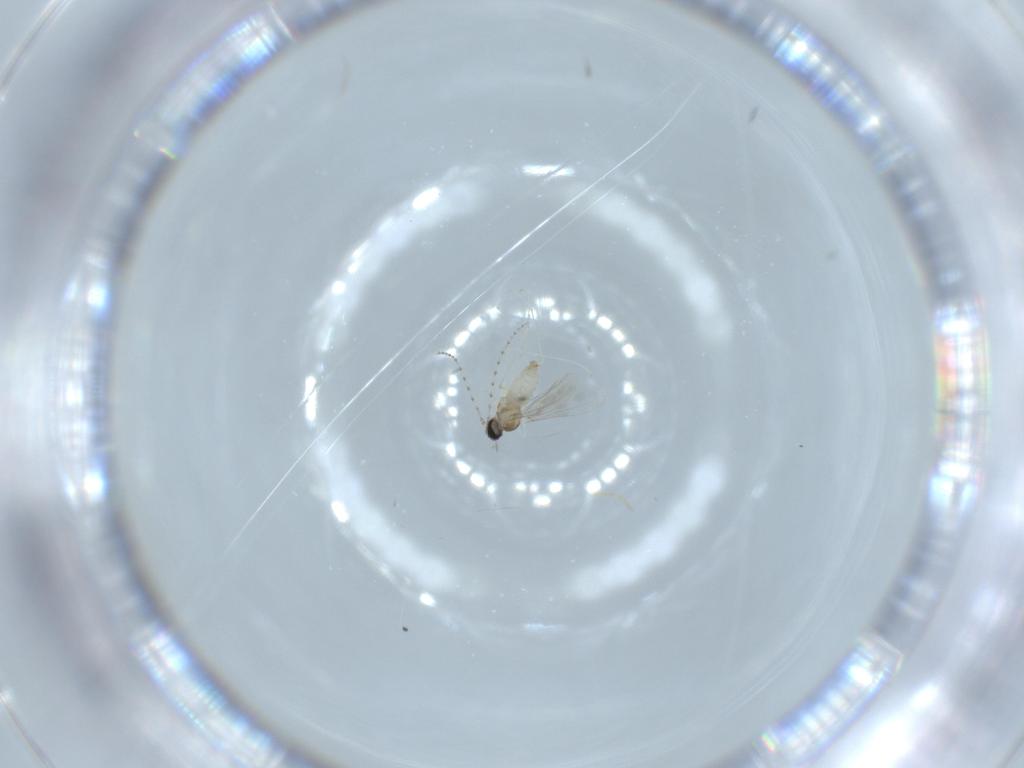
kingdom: Animalia
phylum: Arthropoda
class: Insecta
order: Diptera
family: Cecidomyiidae
